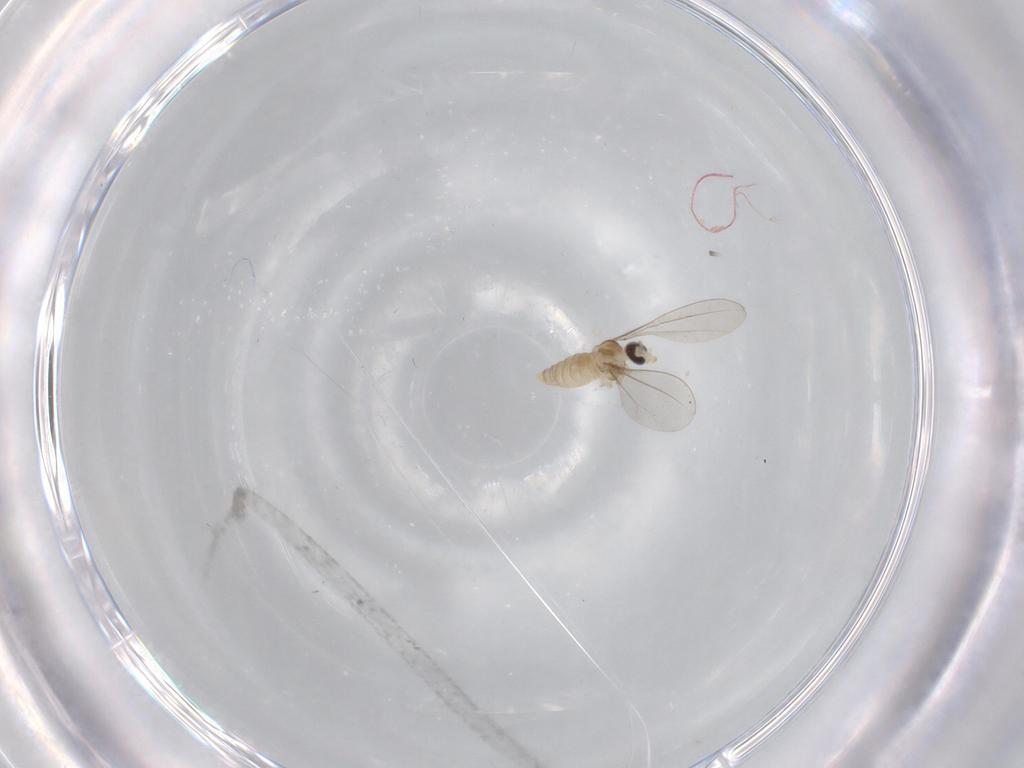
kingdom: Animalia
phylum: Arthropoda
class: Insecta
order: Diptera
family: Cecidomyiidae
